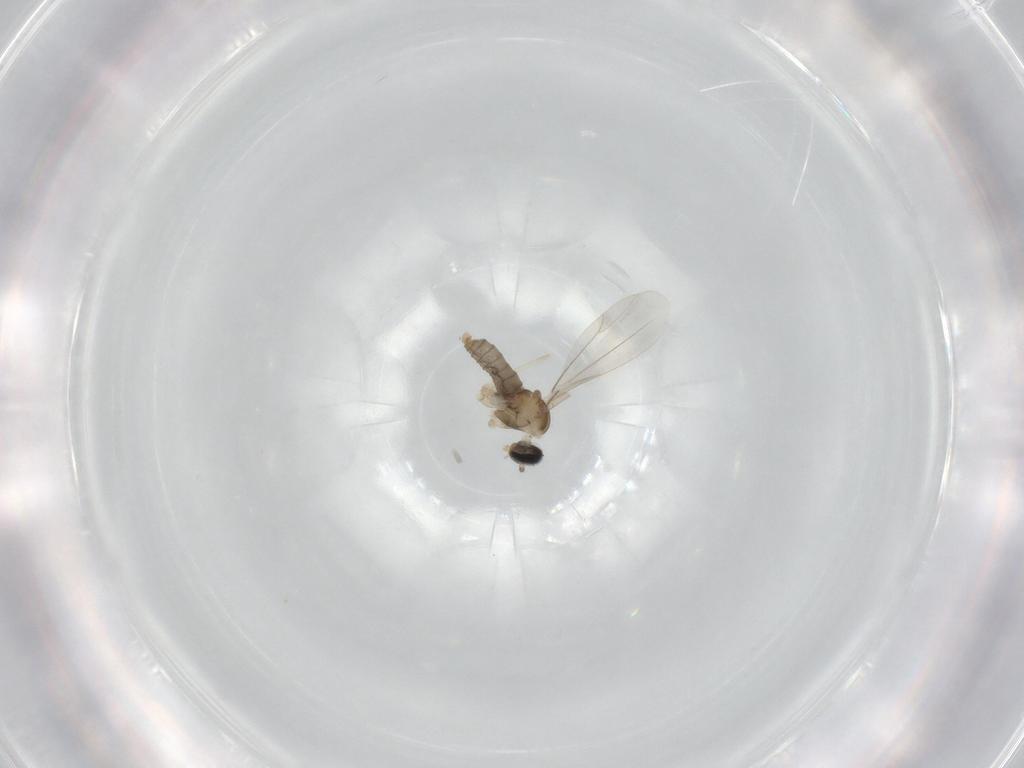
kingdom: Animalia
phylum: Arthropoda
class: Insecta
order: Diptera
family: Cecidomyiidae
